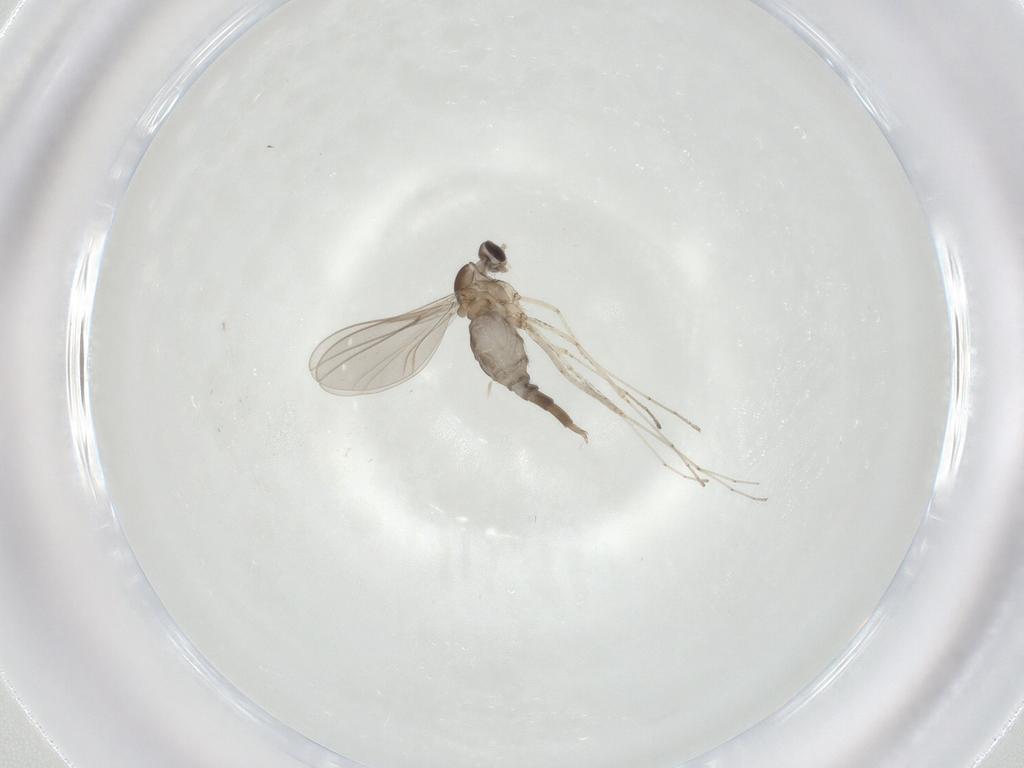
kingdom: Animalia
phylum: Arthropoda
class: Insecta
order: Diptera
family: Cecidomyiidae
